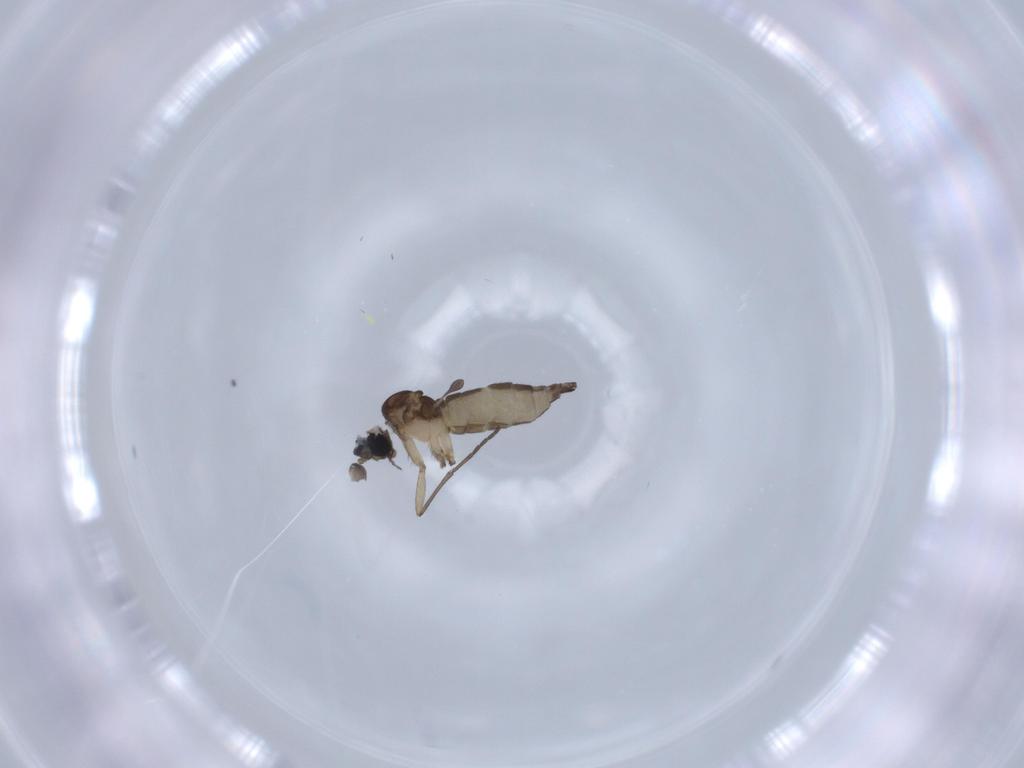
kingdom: Animalia
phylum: Arthropoda
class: Insecta
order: Diptera
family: Sciaridae
